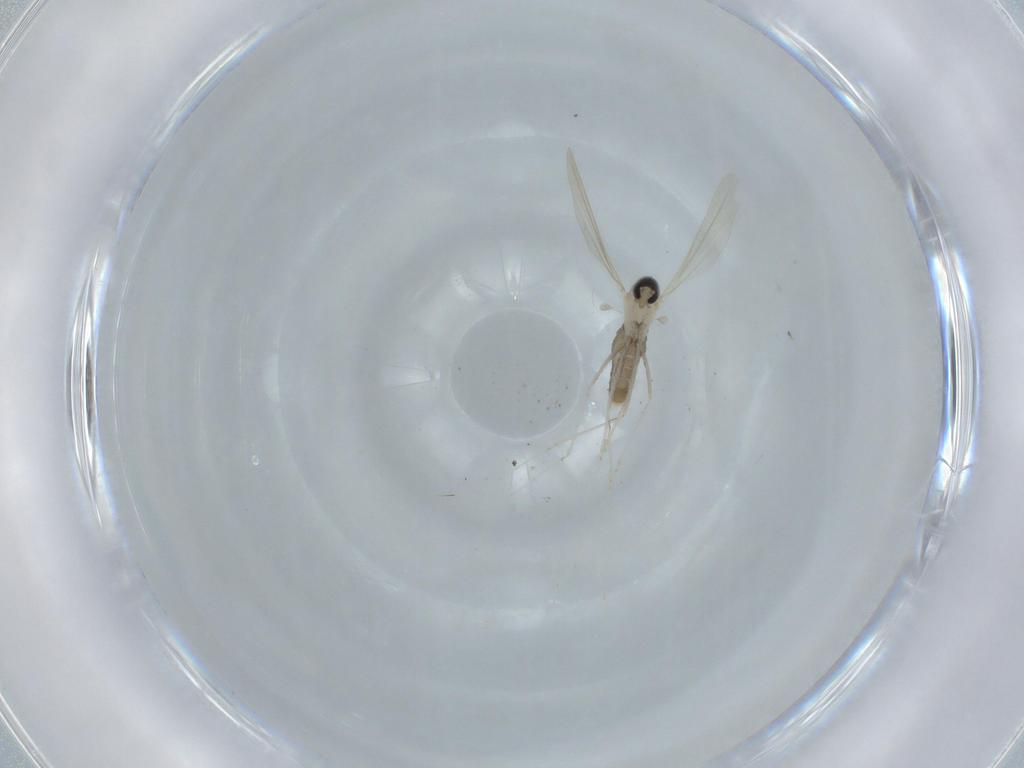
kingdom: Animalia
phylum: Arthropoda
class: Insecta
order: Diptera
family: Cecidomyiidae
